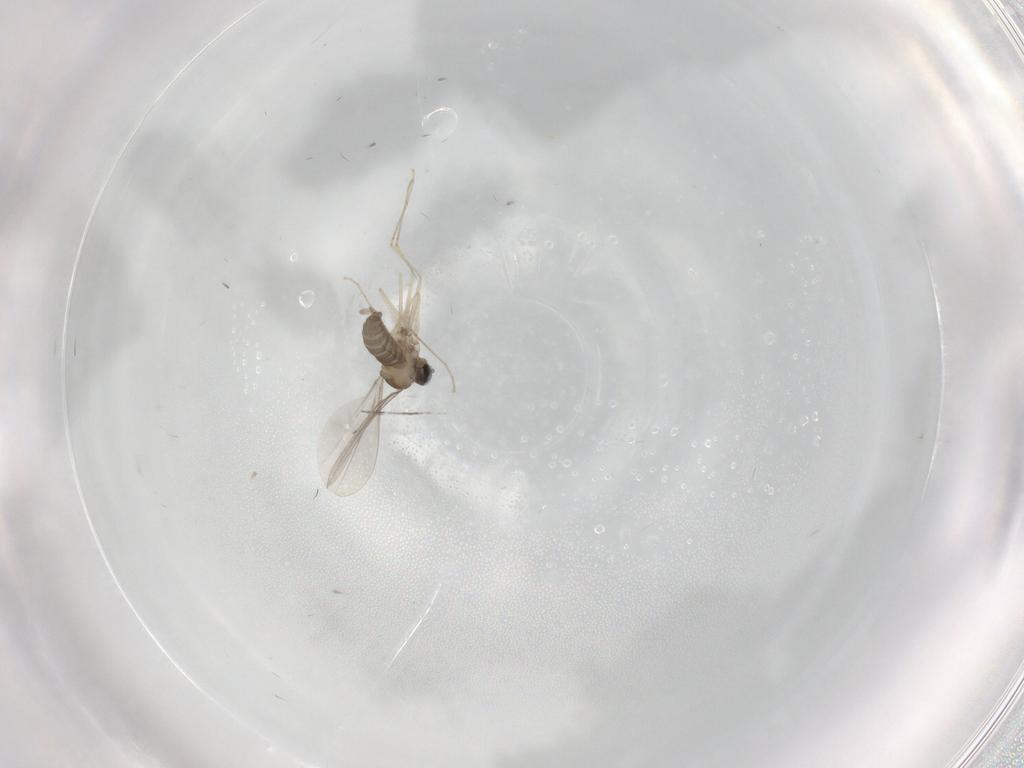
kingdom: Animalia
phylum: Arthropoda
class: Insecta
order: Diptera
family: Cecidomyiidae
